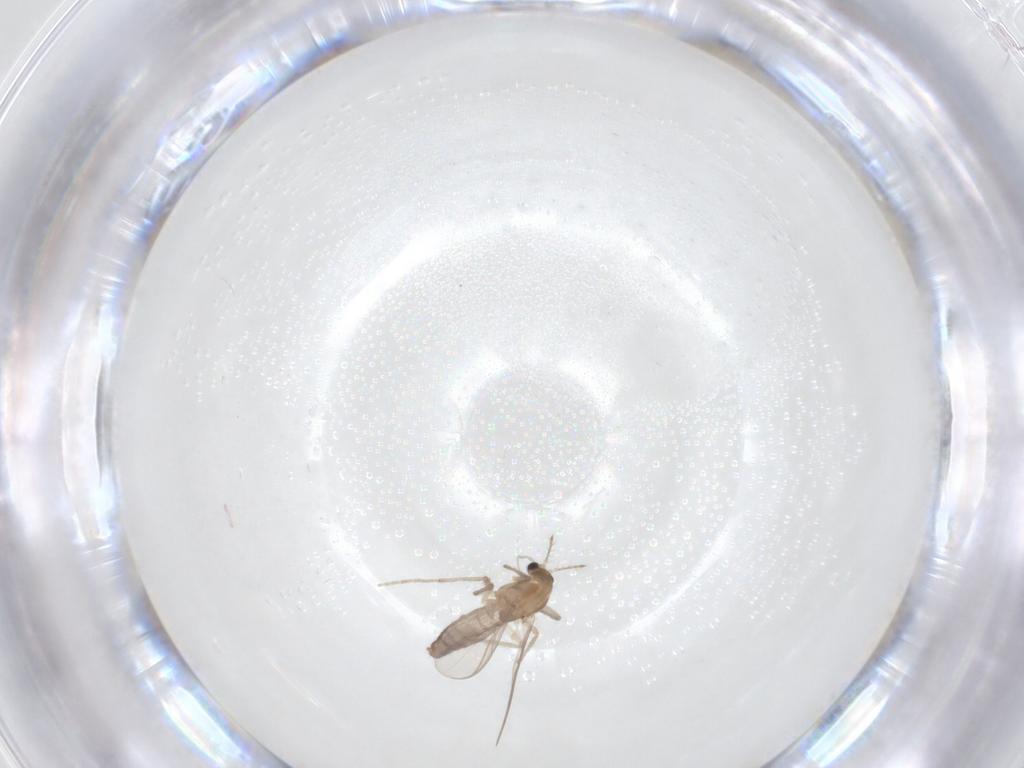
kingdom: Animalia
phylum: Arthropoda
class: Insecta
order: Diptera
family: Chironomidae
